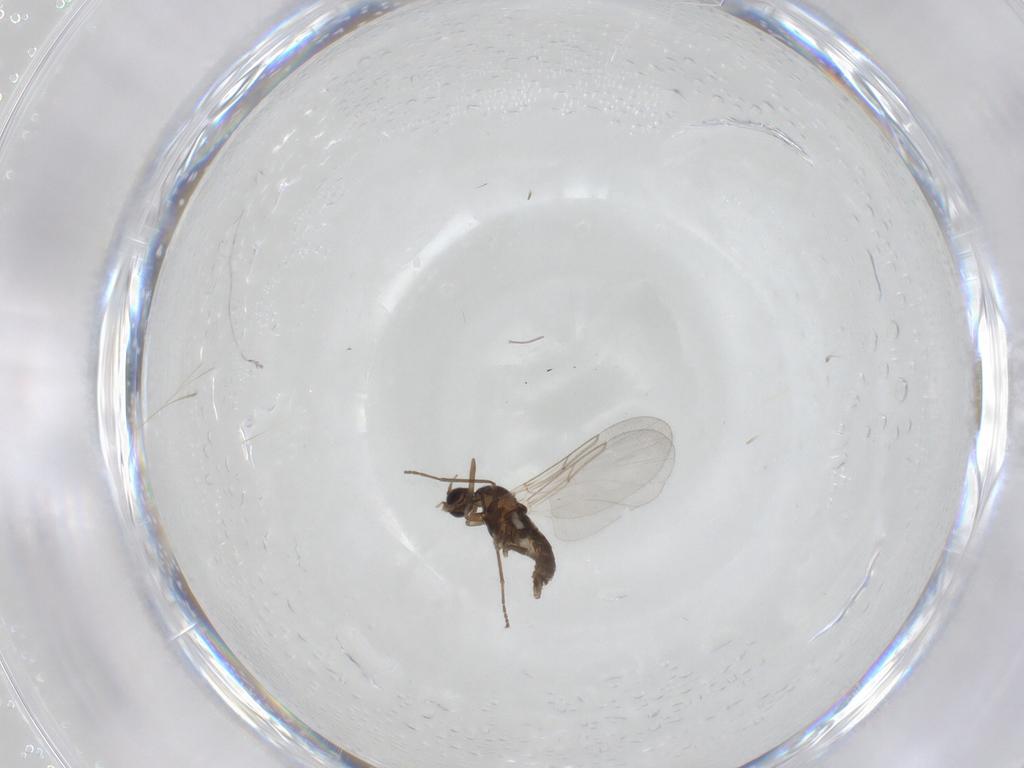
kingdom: Animalia
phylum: Arthropoda
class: Insecta
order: Diptera
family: Cecidomyiidae
